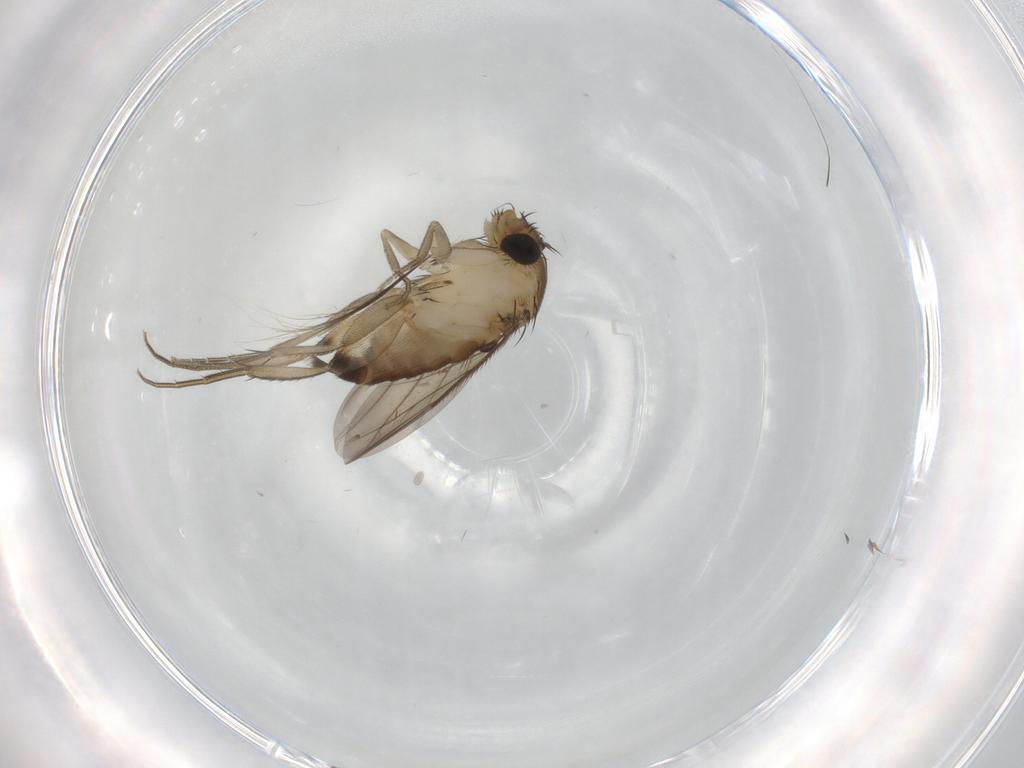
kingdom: Animalia
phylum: Arthropoda
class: Insecta
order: Diptera
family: Phoridae
